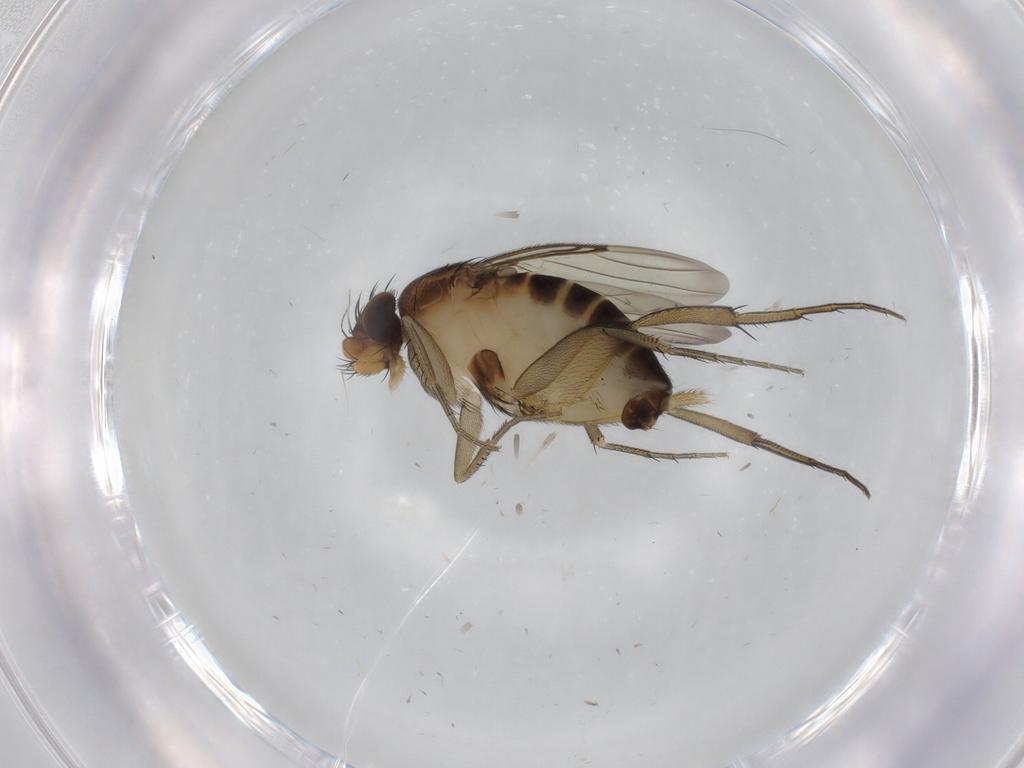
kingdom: Animalia
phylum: Arthropoda
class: Insecta
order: Diptera
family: Phoridae
